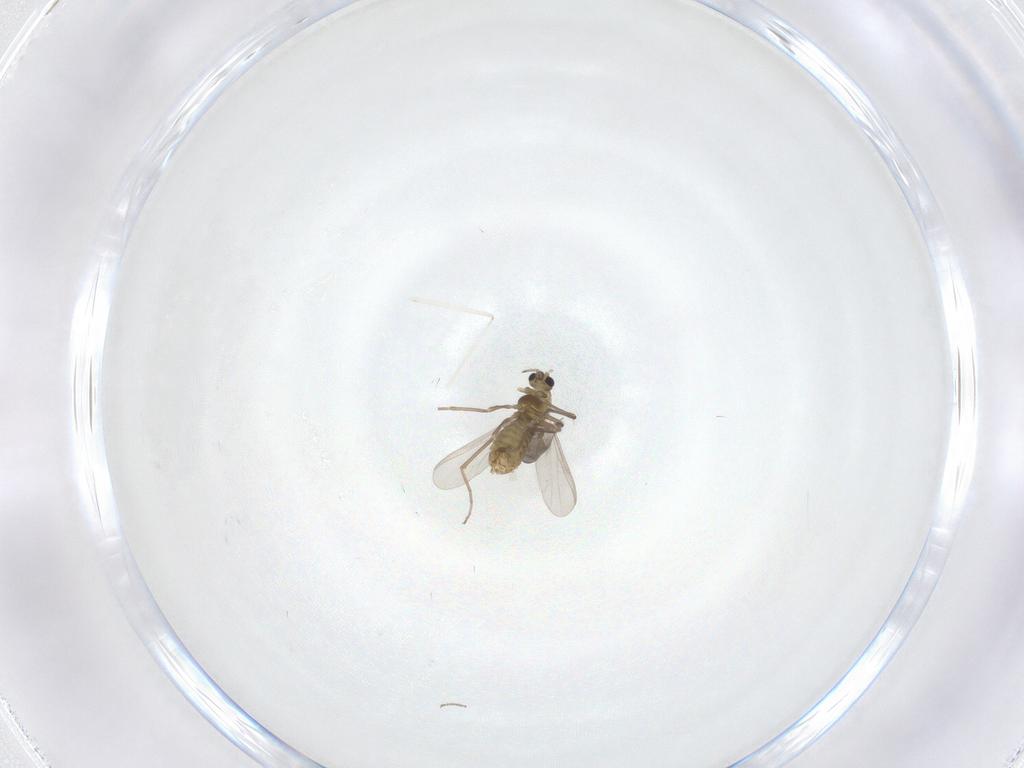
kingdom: Animalia
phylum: Arthropoda
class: Insecta
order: Diptera
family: Chironomidae
